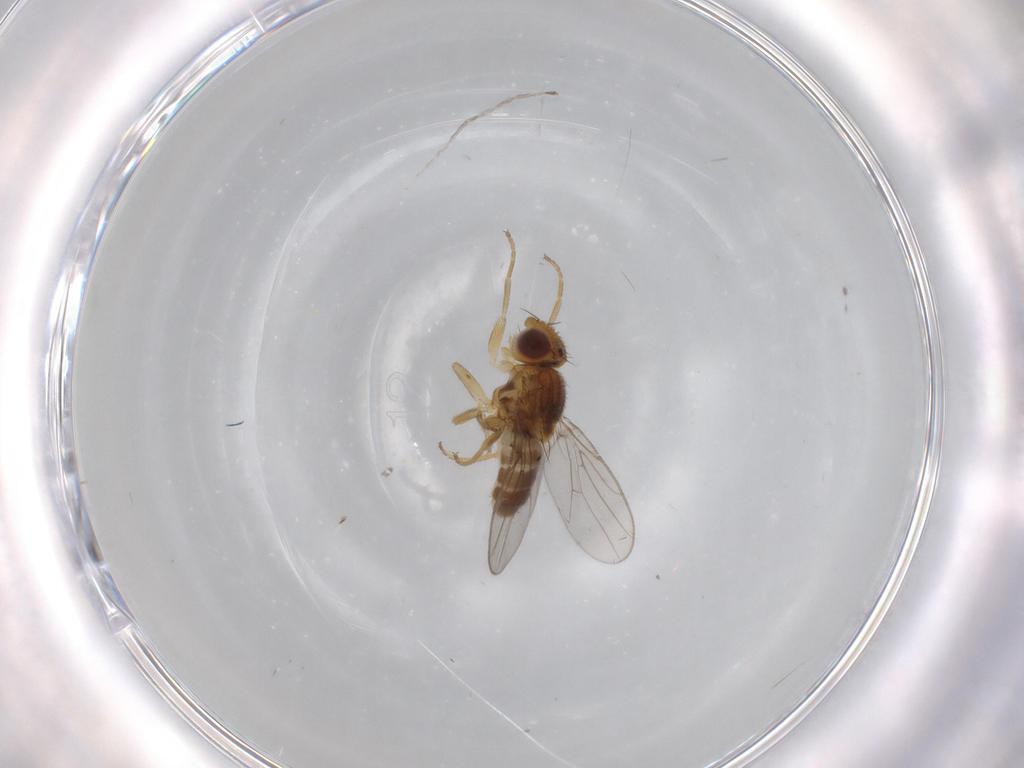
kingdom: Animalia
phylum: Arthropoda
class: Insecta
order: Diptera
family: Chloropidae
